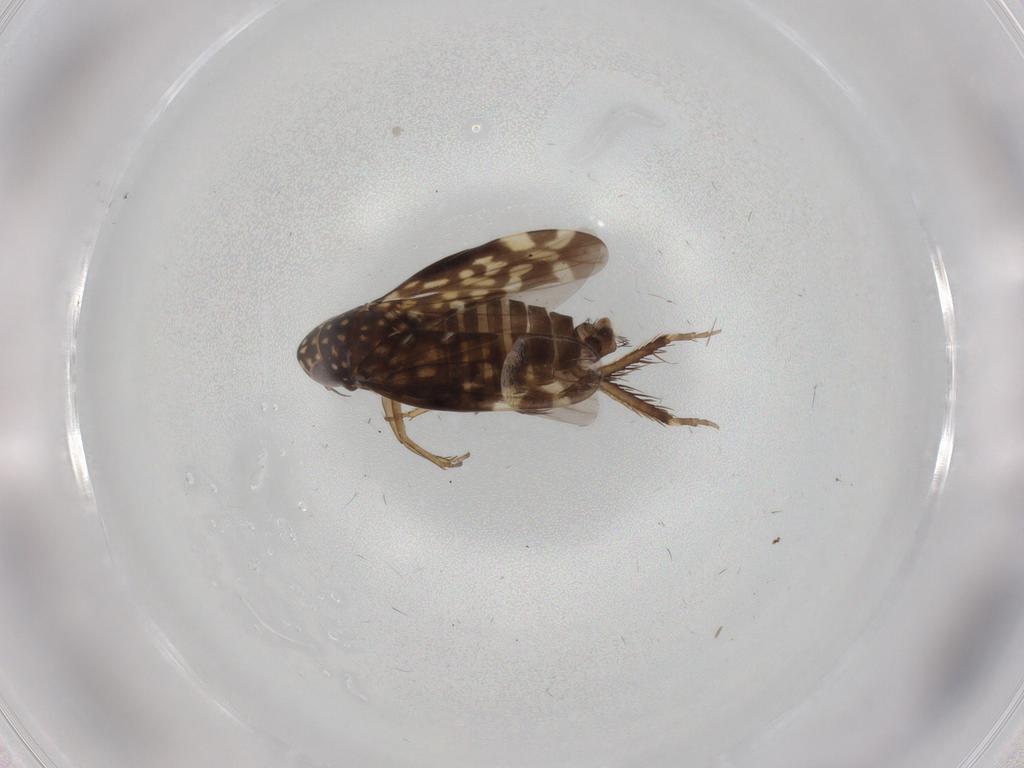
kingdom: Animalia
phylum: Arthropoda
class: Insecta
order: Hemiptera
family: Cicadellidae
